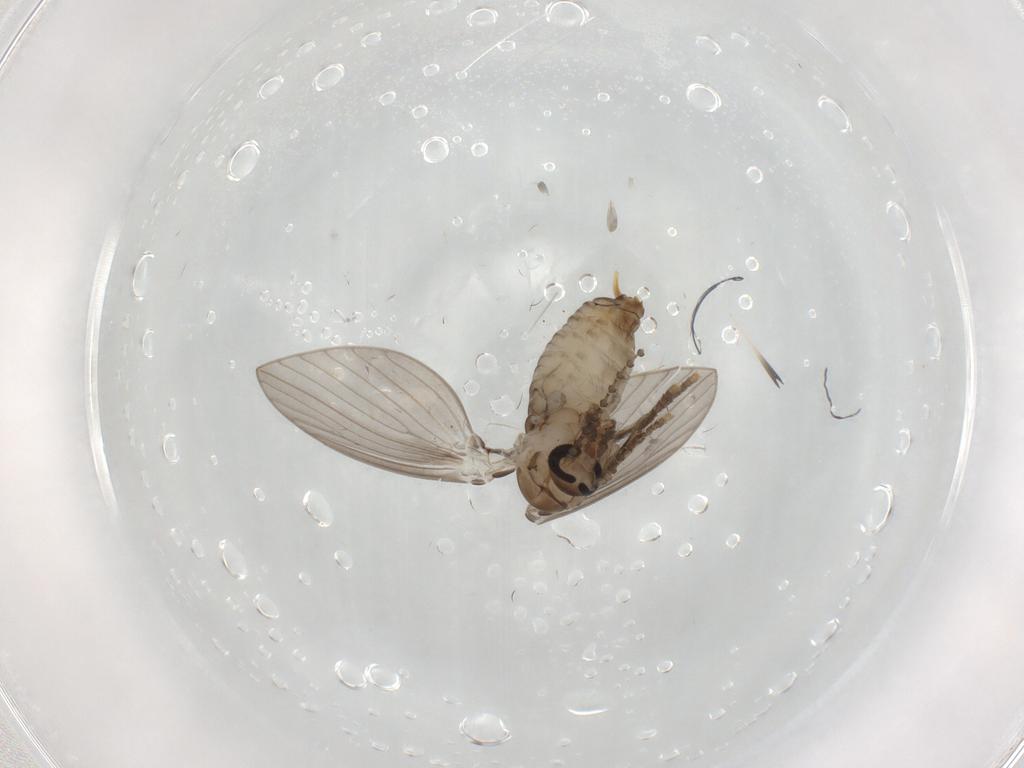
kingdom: Animalia
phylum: Arthropoda
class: Insecta
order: Diptera
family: Psychodidae
